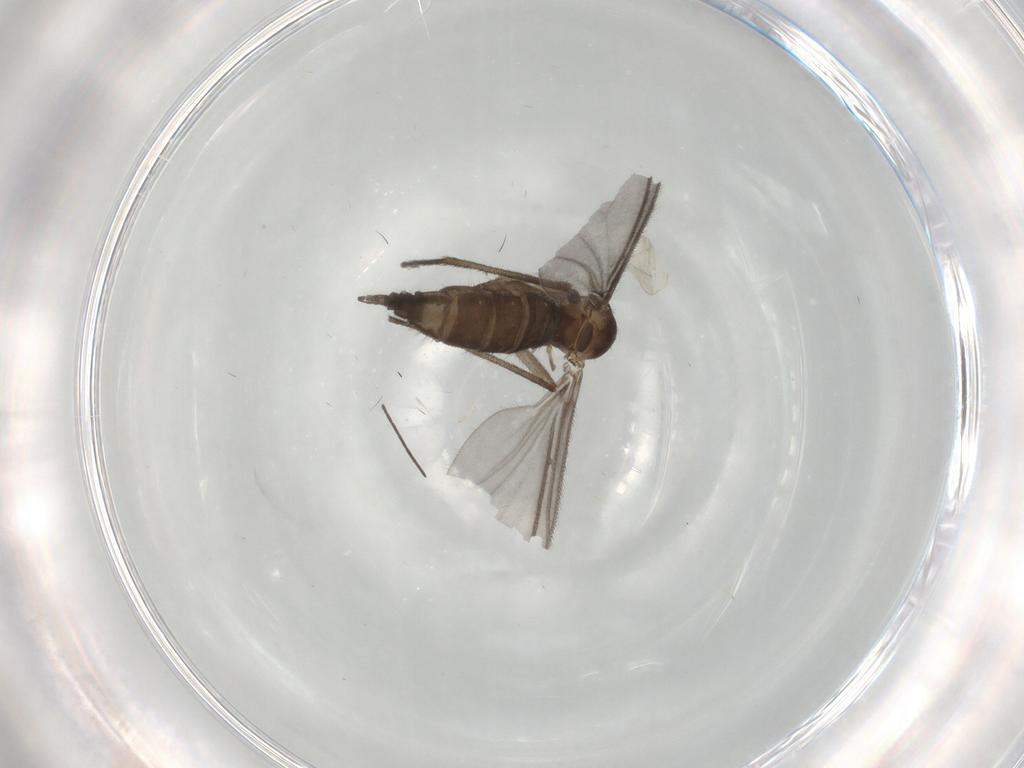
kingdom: Animalia
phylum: Arthropoda
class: Insecta
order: Diptera
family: Sciaridae
